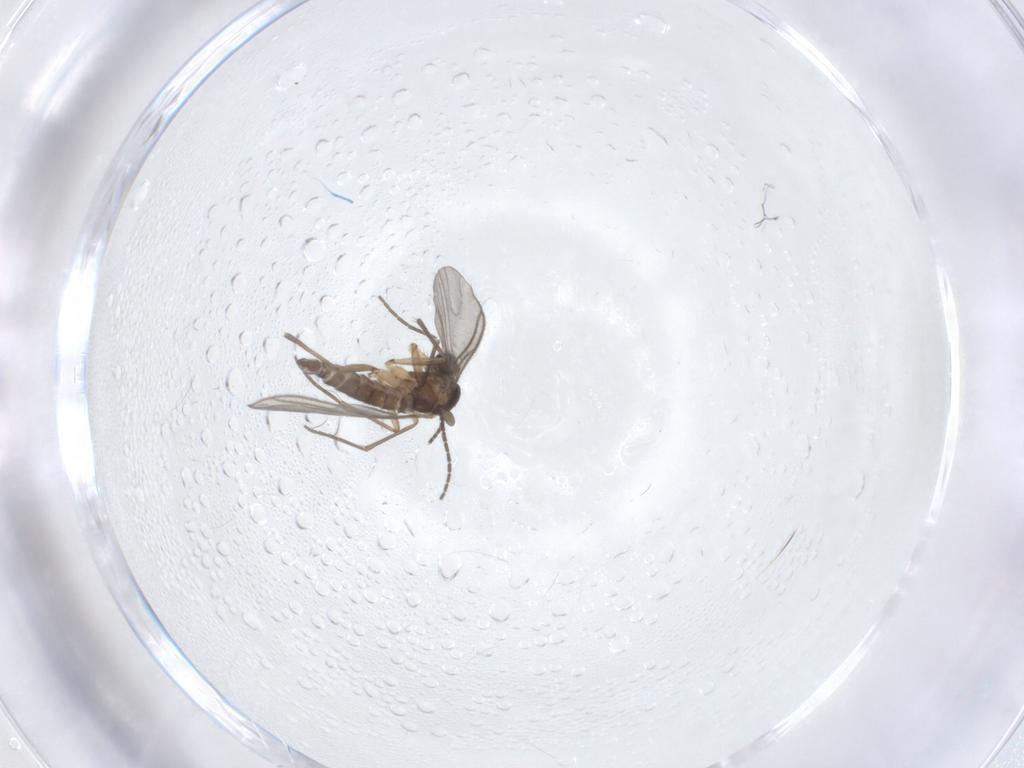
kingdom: Animalia
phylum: Arthropoda
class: Insecta
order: Diptera
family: Sciaridae
